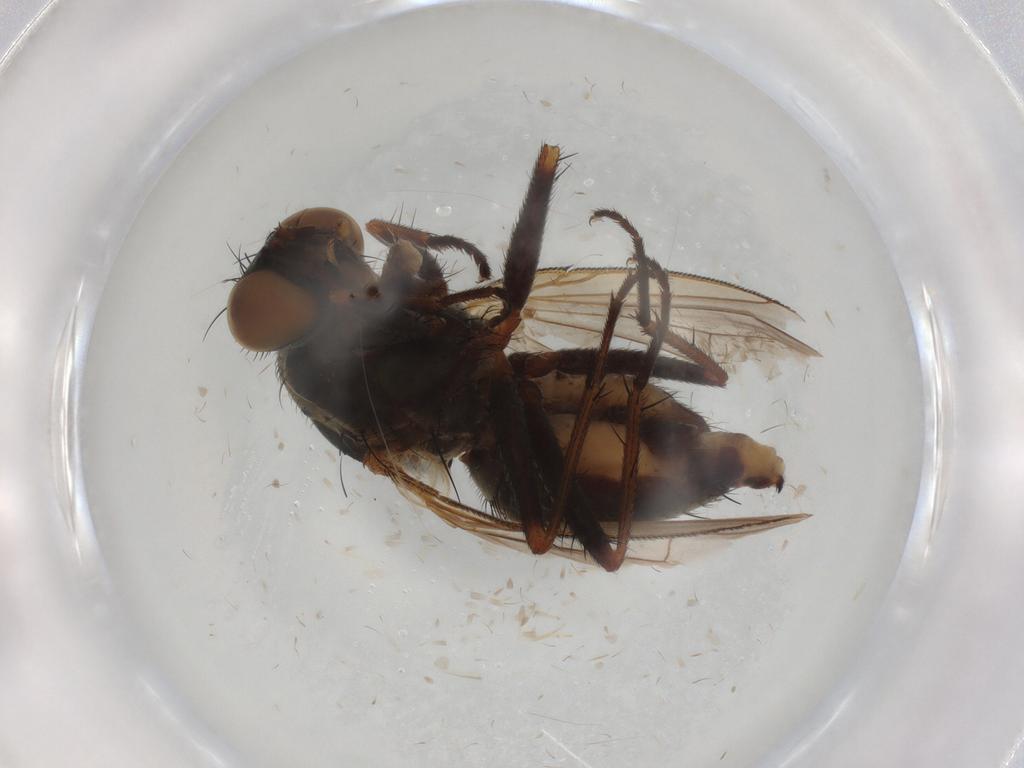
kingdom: Animalia
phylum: Arthropoda
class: Insecta
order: Diptera
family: Muscidae
